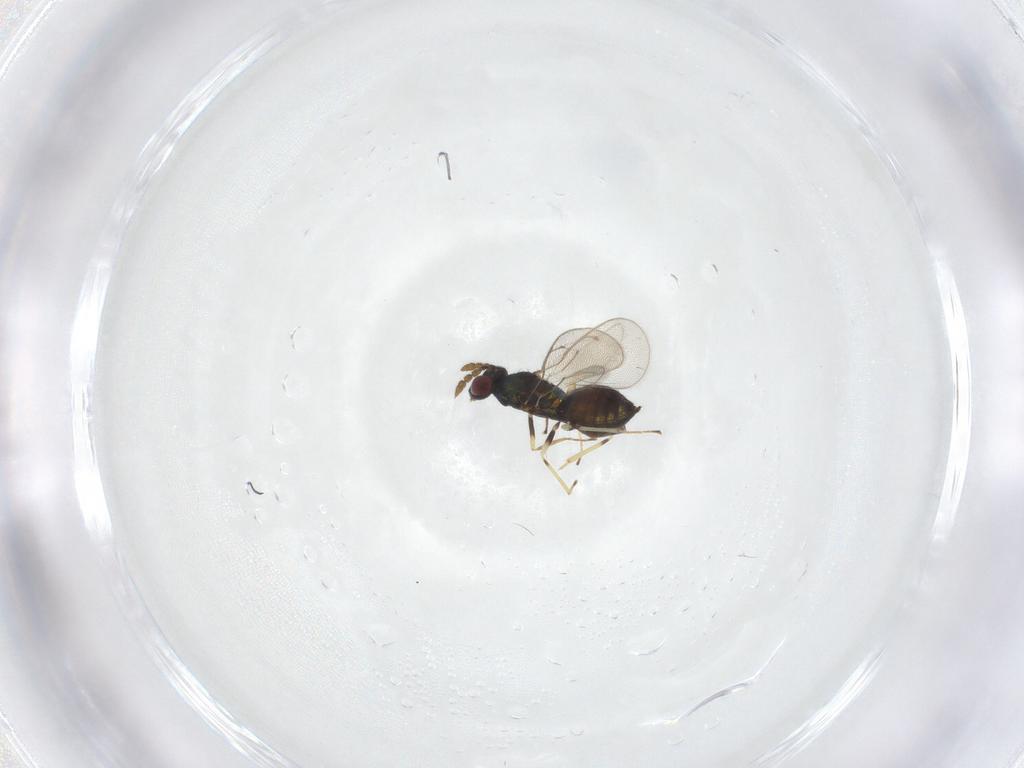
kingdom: Animalia
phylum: Arthropoda
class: Insecta
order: Hymenoptera
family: Eulophidae
